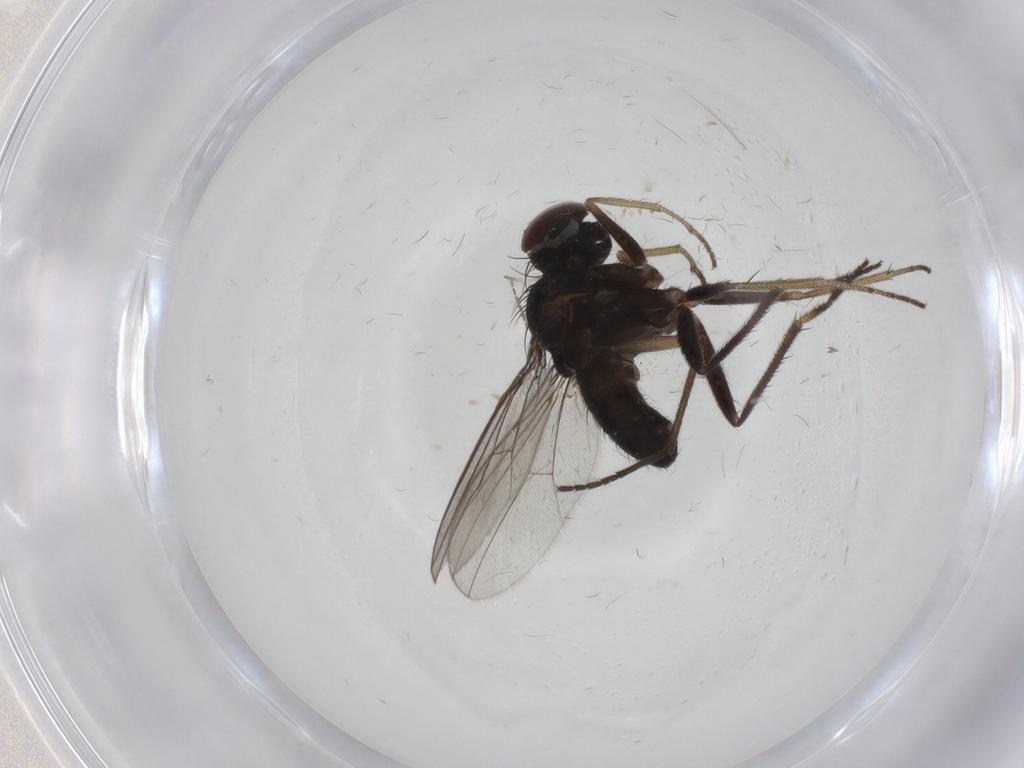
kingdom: Animalia
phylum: Arthropoda
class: Insecta
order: Diptera
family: Dolichopodidae
